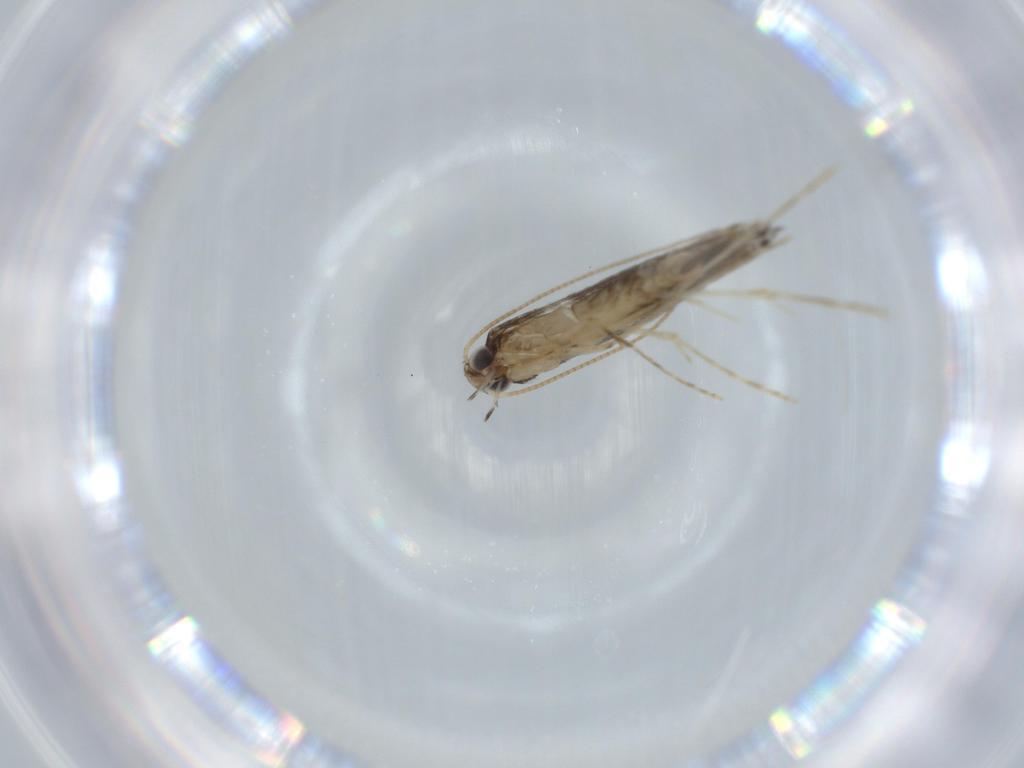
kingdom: Animalia
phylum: Arthropoda
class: Insecta
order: Lepidoptera
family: Gracillariidae
